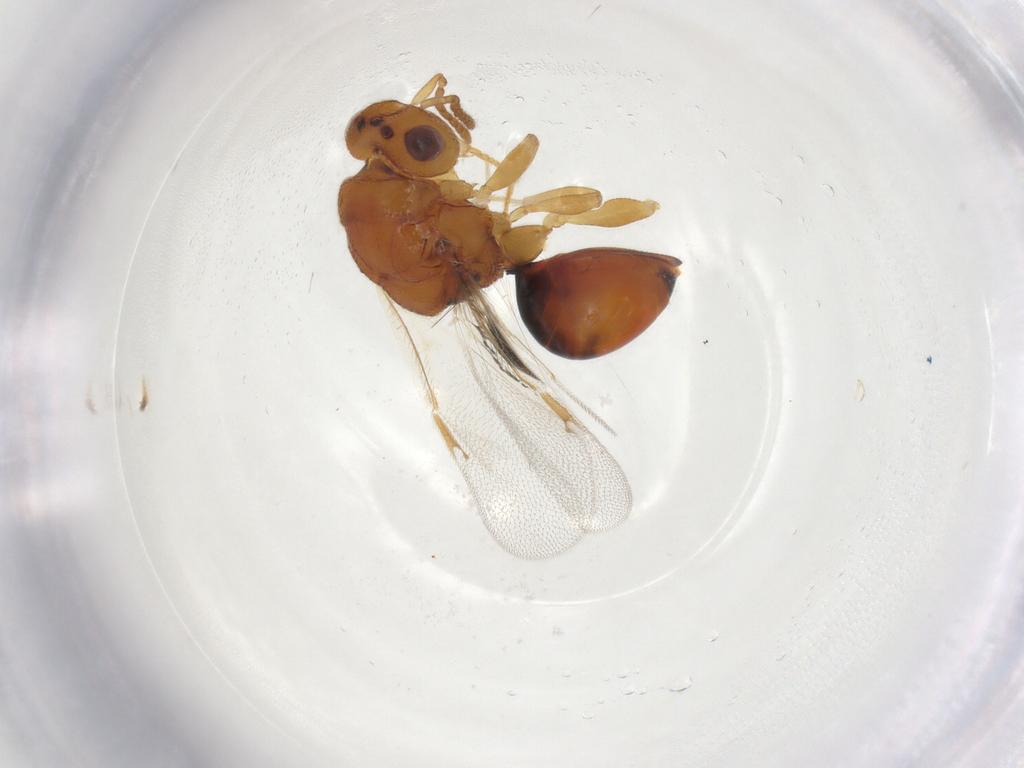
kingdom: Animalia
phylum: Arthropoda
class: Insecta
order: Hymenoptera
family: Eurytomidae
